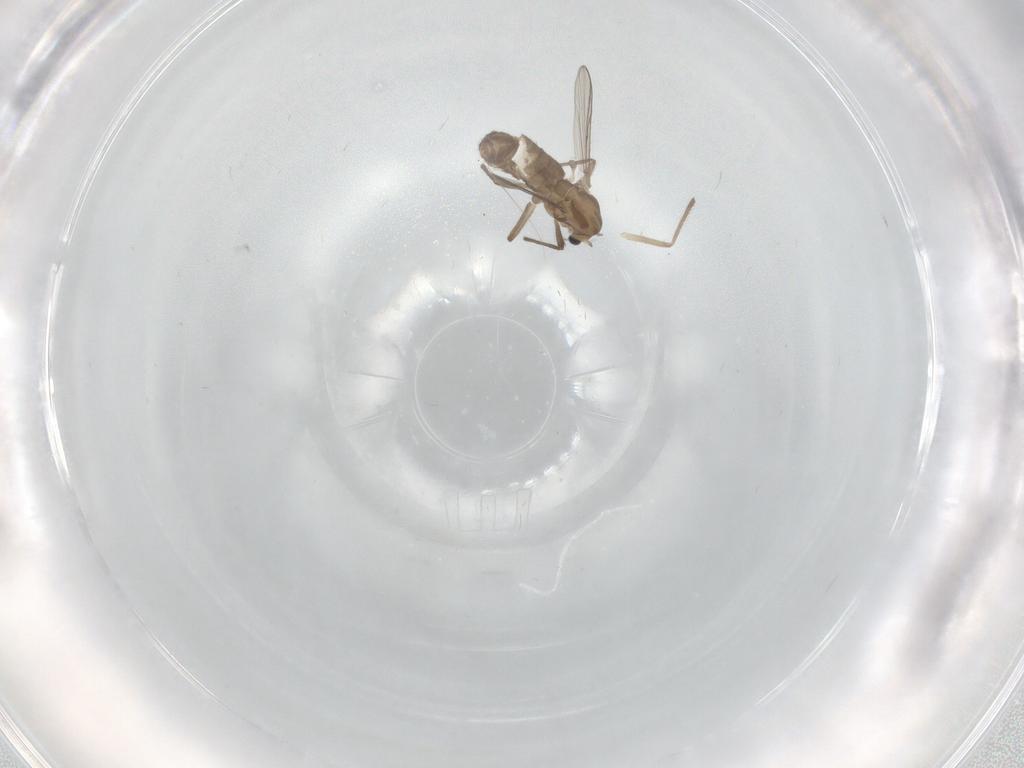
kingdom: Animalia
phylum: Arthropoda
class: Insecta
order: Diptera
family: Chironomidae
